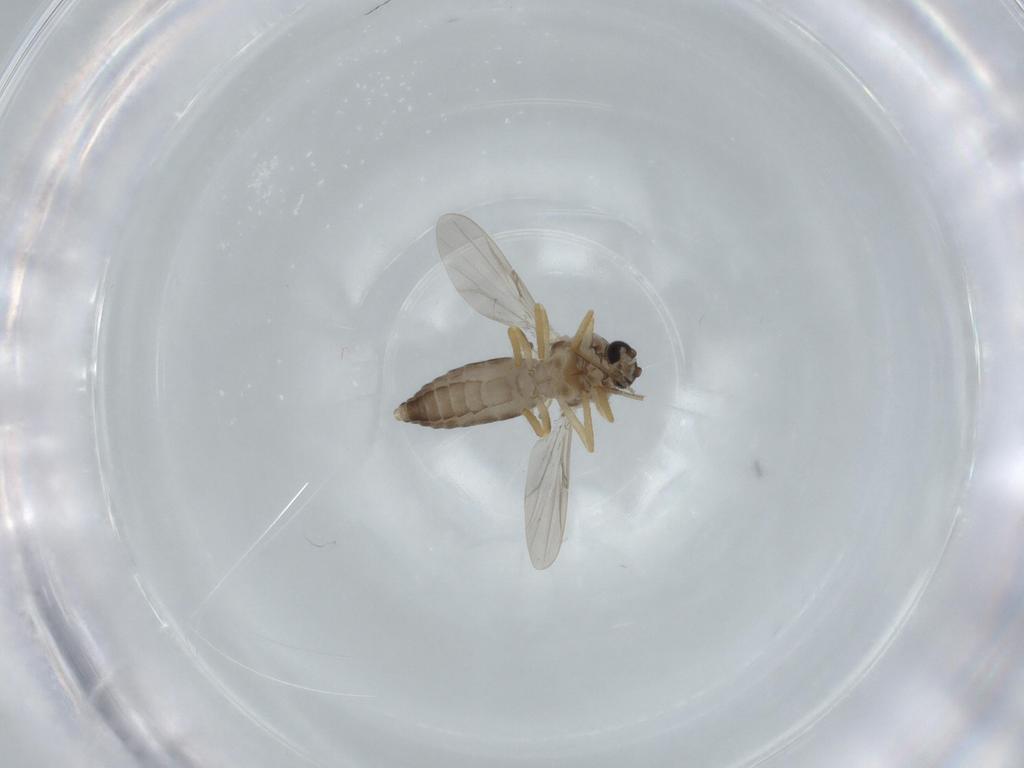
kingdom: Animalia
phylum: Arthropoda
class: Insecta
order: Diptera
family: Ceratopogonidae
